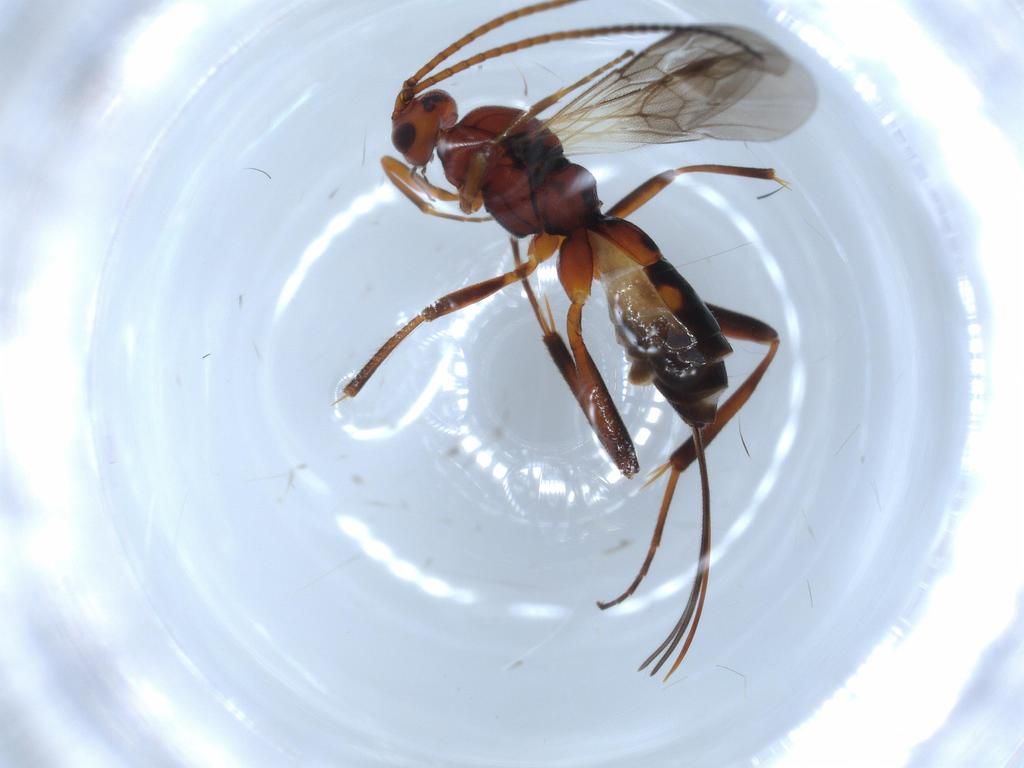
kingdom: Animalia
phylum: Arthropoda
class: Insecta
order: Hymenoptera
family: Braconidae
